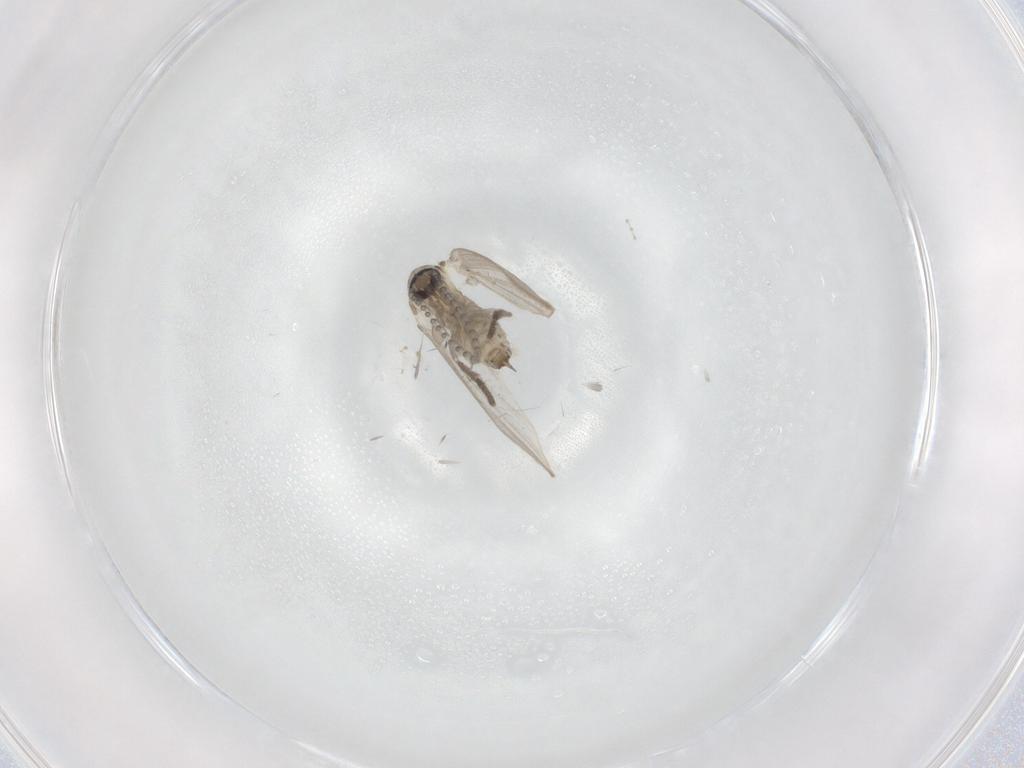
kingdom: Animalia
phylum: Arthropoda
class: Insecta
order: Diptera
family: Psychodidae
